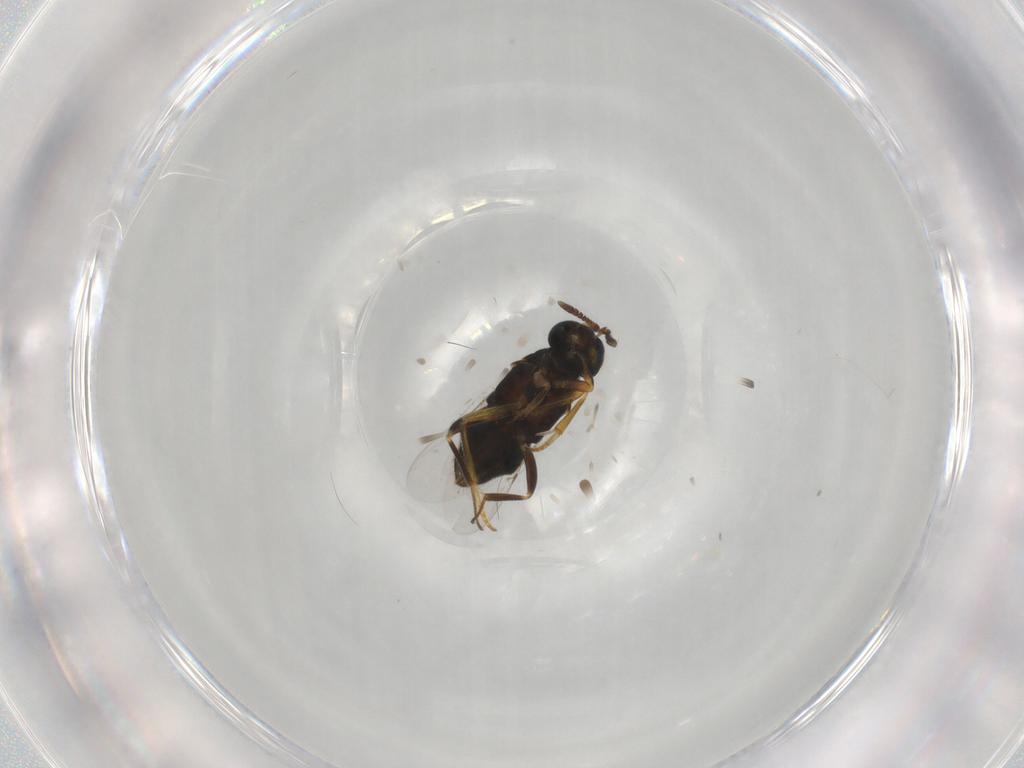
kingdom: Animalia
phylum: Arthropoda
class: Insecta
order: Hymenoptera
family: Encyrtidae
